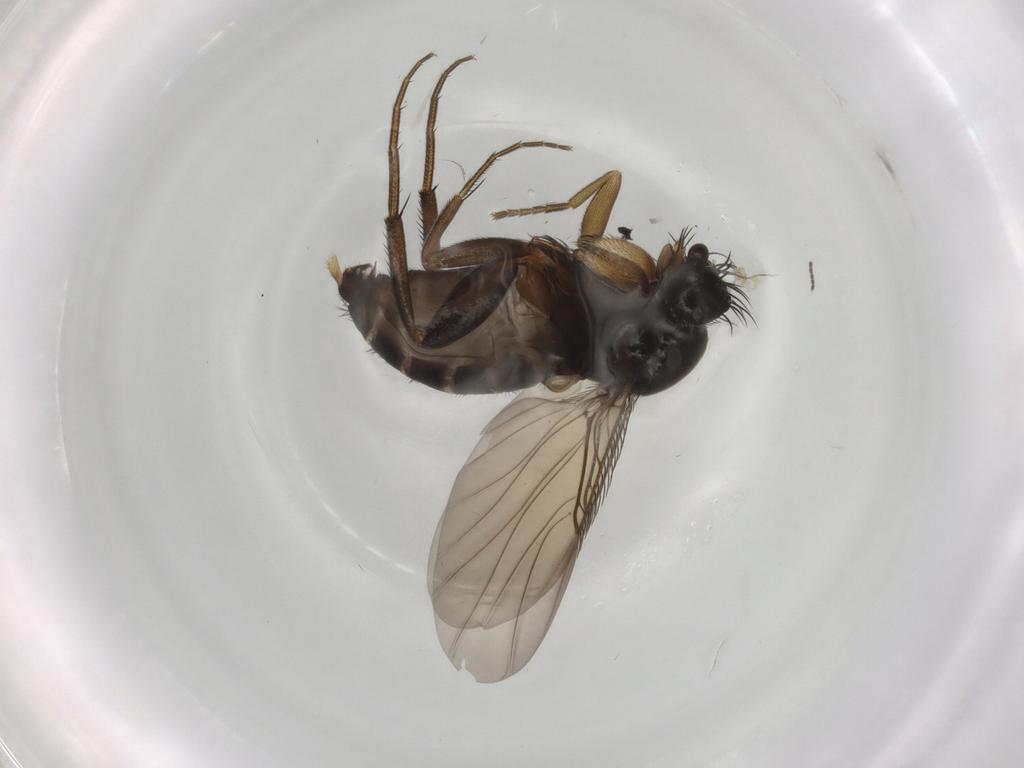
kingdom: Animalia
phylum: Arthropoda
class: Insecta
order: Diptera
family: Phoridae
